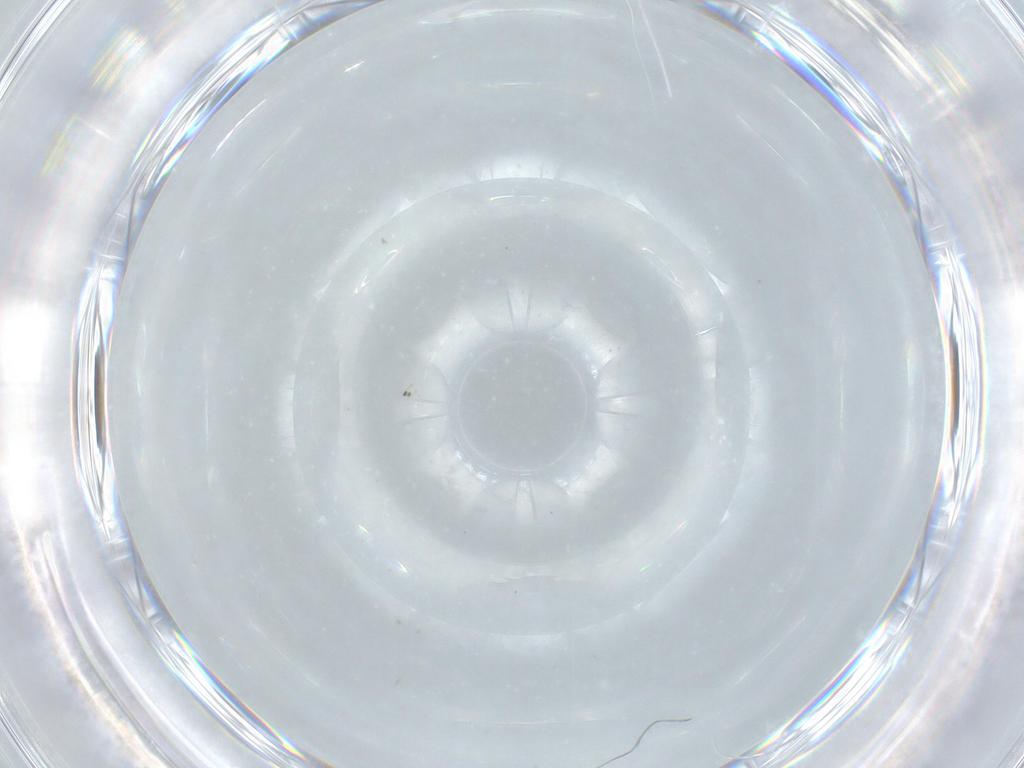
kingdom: Animalia
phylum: Arthropoda
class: Insecta
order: Diptera
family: Cecidomyiidae
